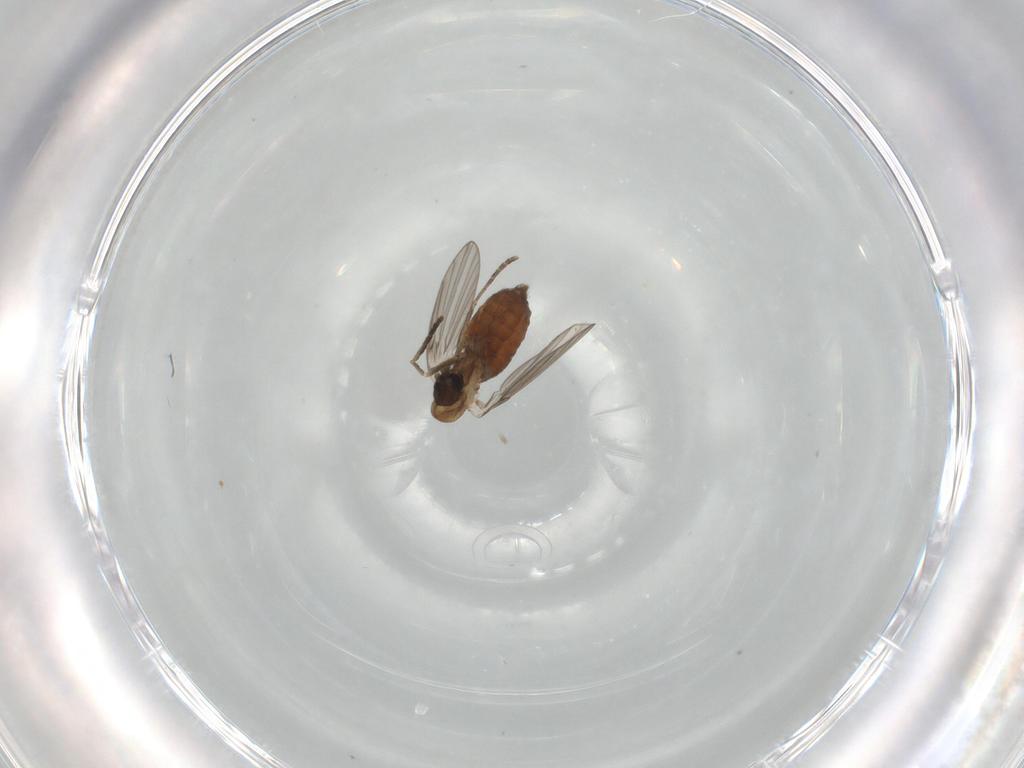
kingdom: Animalia
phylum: Arthropoda
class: Insecta
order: Diptera
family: Psychodidae
